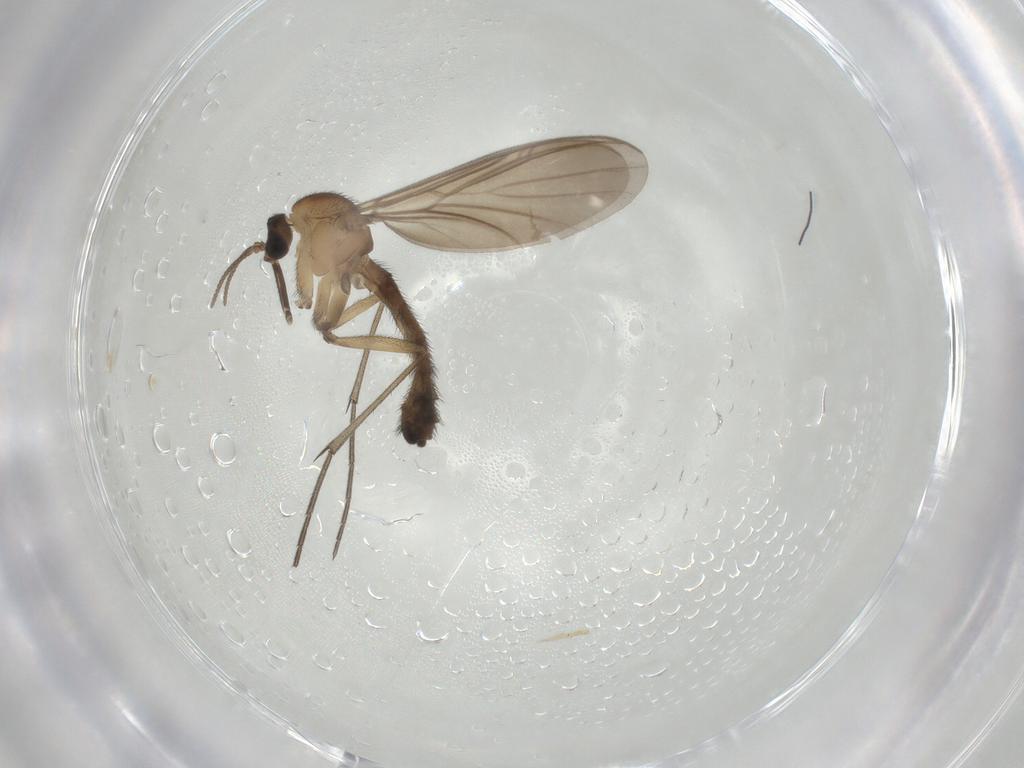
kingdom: Animalia
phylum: Arthropoda
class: Insecta
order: Diptera
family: Keroplatidae
